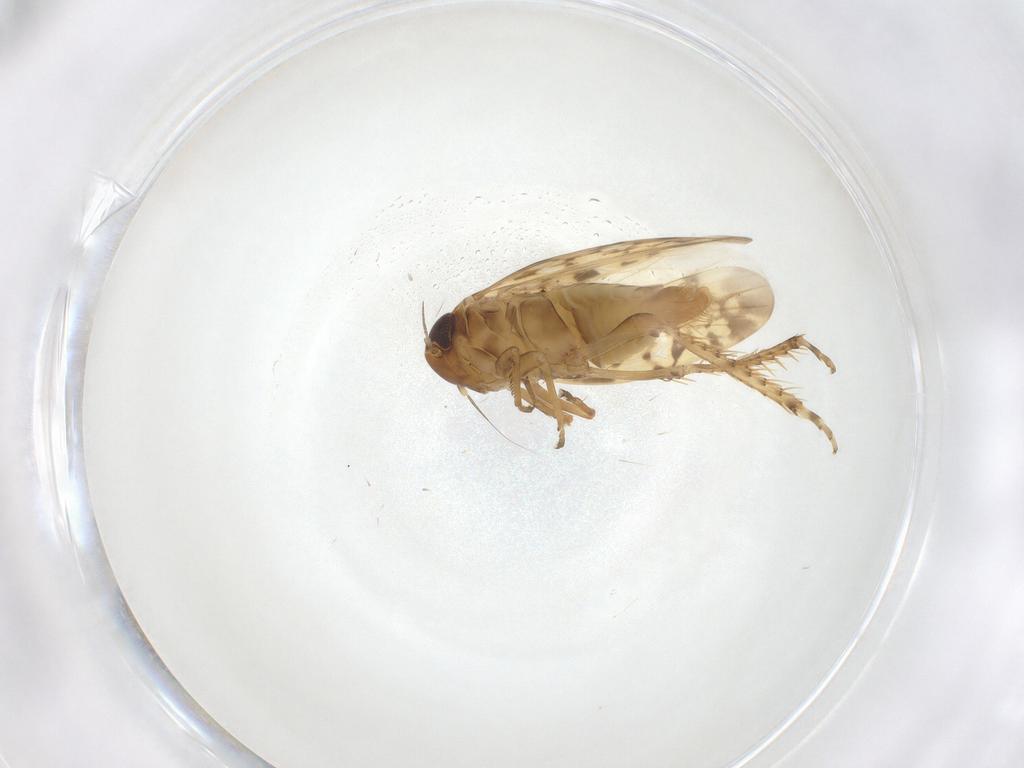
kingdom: Animalia
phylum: Arthropoda
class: Insecta
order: Hemiptera
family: Cicadellidae
